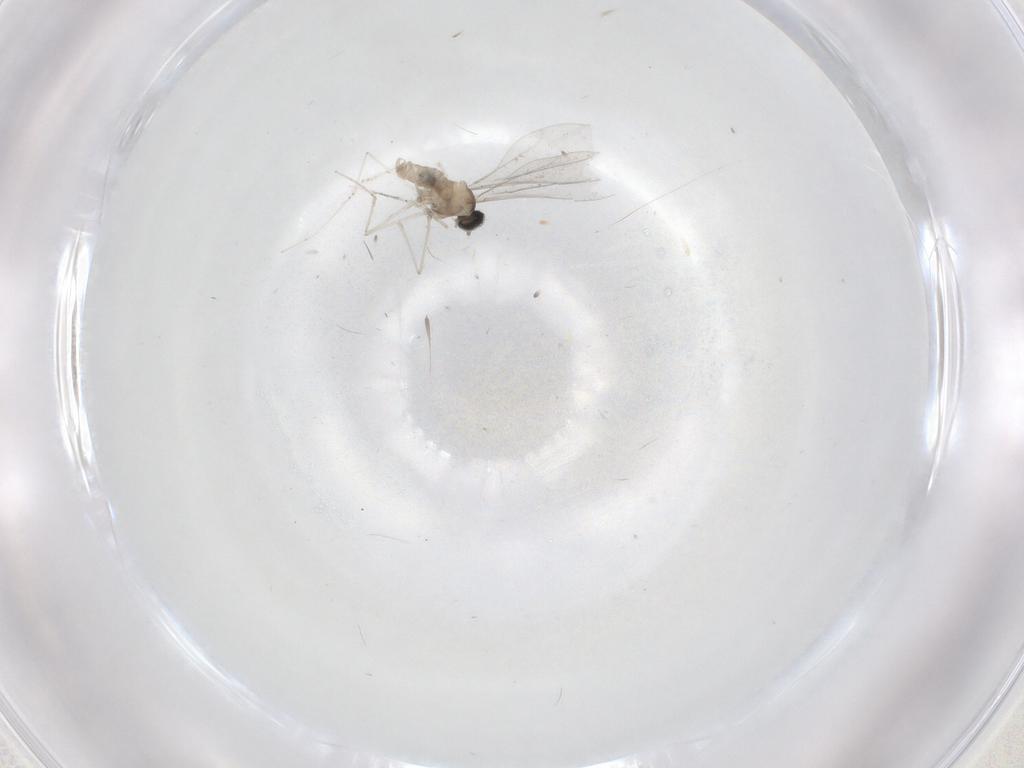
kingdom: Animalia
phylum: Arthropoda
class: Insecta
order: Diptera
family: Cecidomyiidae
